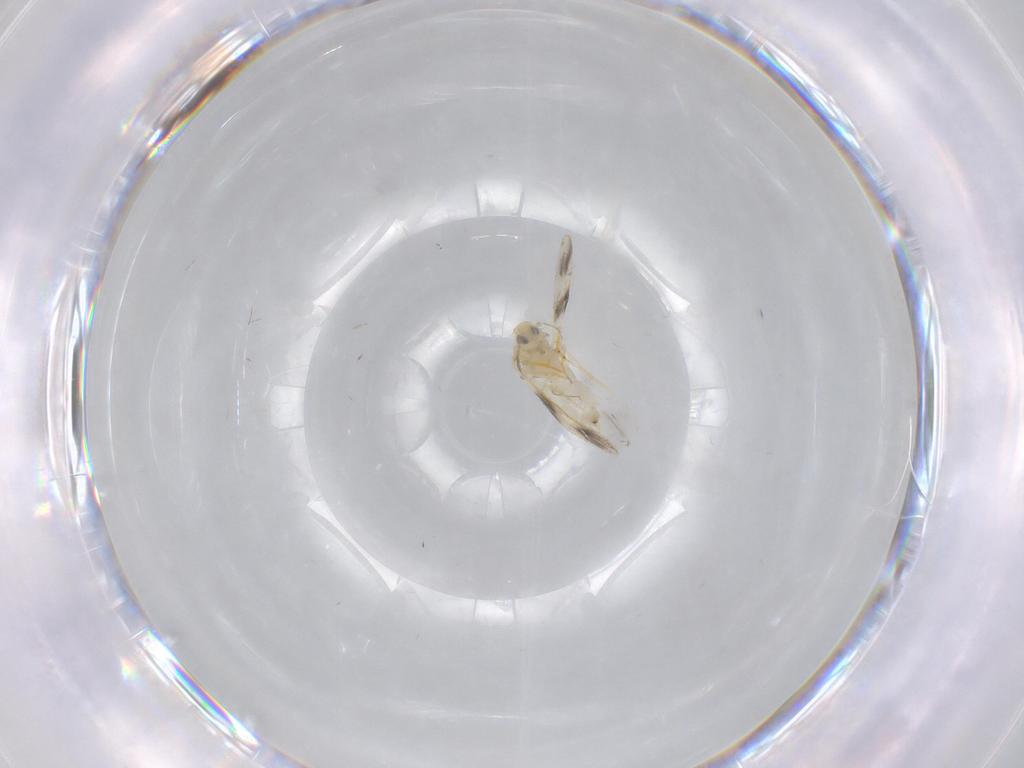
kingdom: Animalia
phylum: Arthropoda
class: Insecta
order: Hemiptera
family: Aleyrodidae
